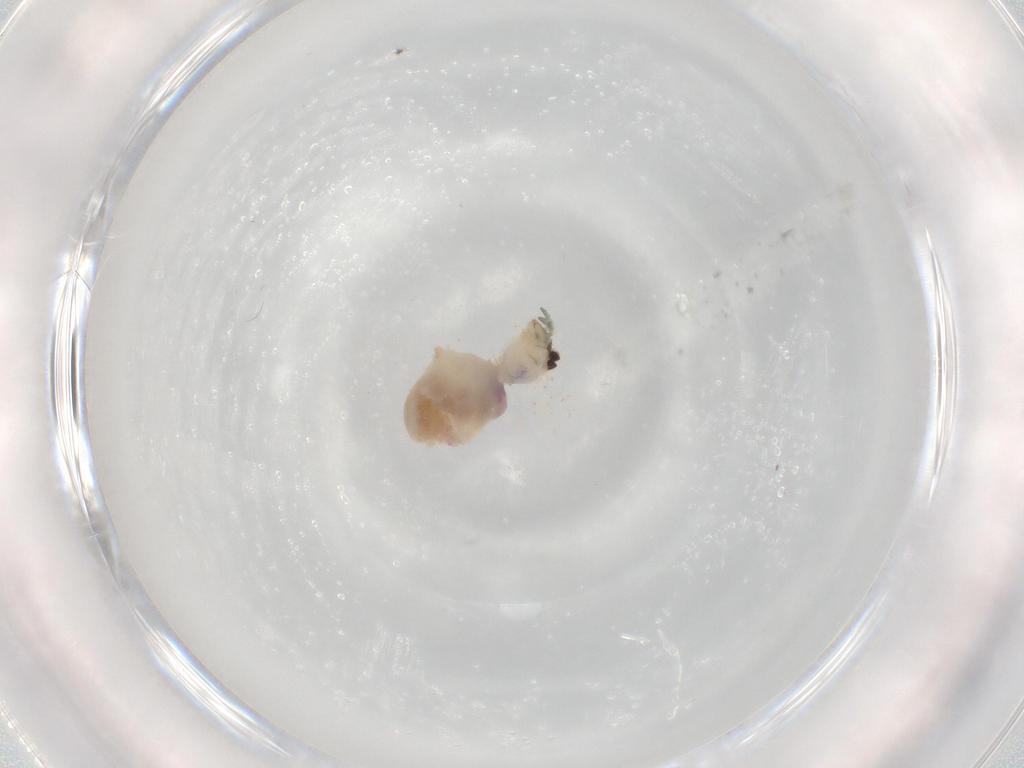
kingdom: Animalia
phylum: Arthropoda
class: Arachnida
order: Araneae
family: Pholcidae
